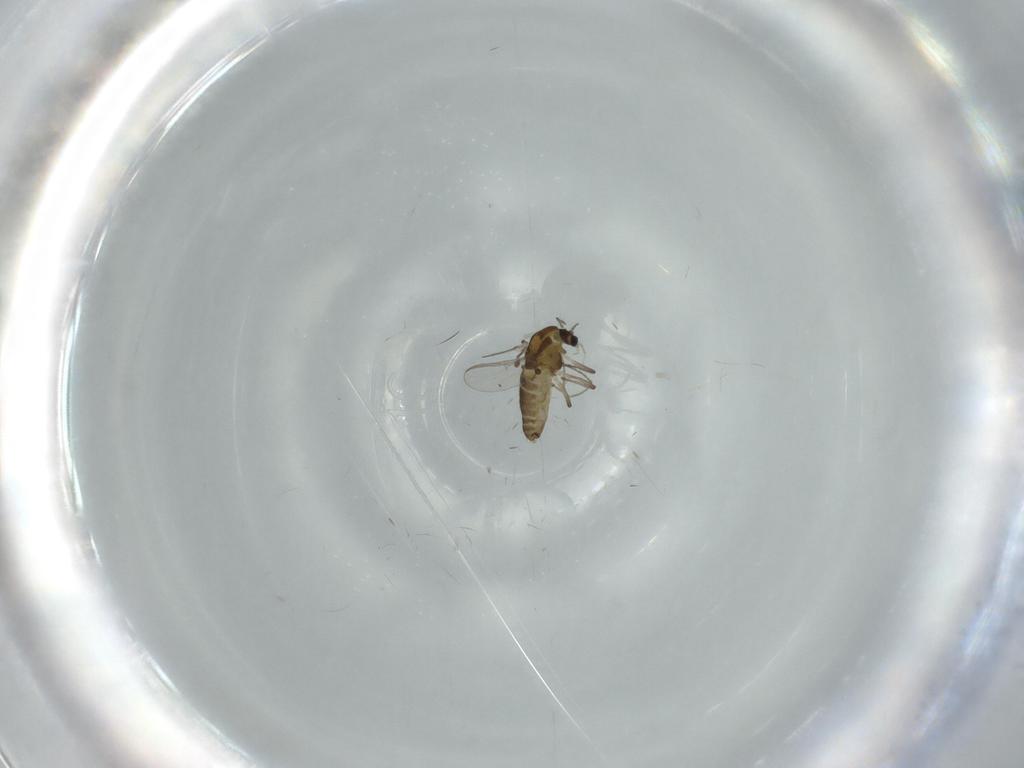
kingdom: Animalia
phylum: Arthropoda
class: Insecta
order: Diptera
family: Chironomidae
